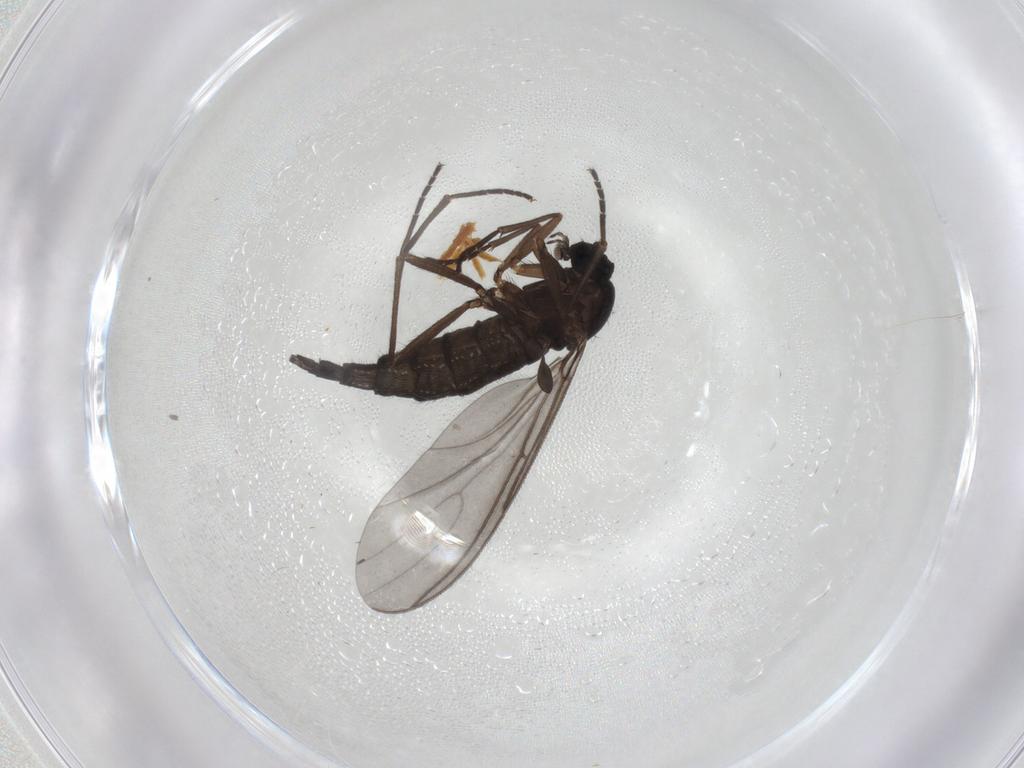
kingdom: Animalia
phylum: Arthropoda
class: Insecta
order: Diptera
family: Sciaridae
